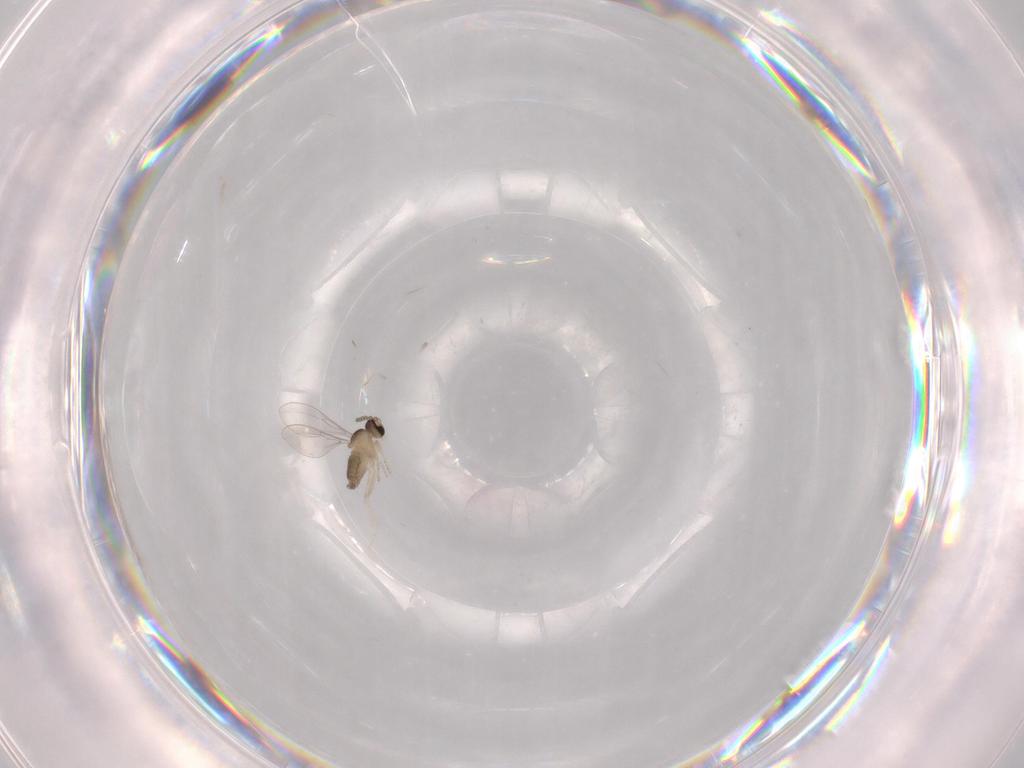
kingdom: Animalia
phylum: Arthropoda
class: Insecta
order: Diptera
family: Cecidomyiidae
